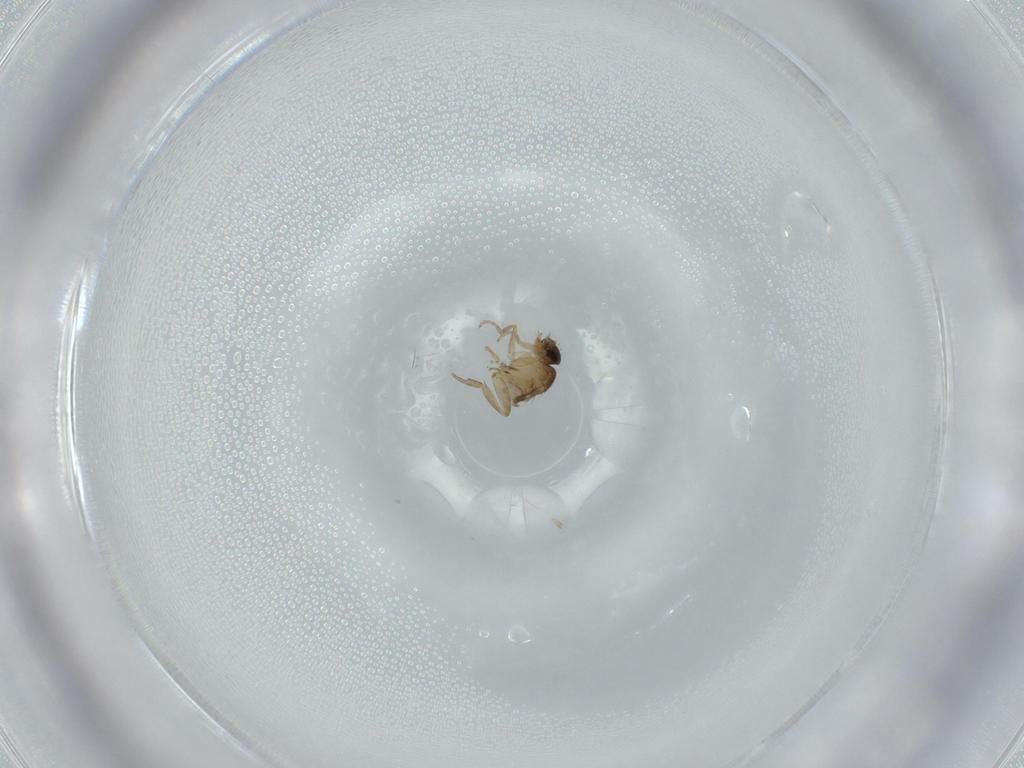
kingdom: Animalia
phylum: Arthropoda
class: Insecta
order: Diptera
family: Phoridae
